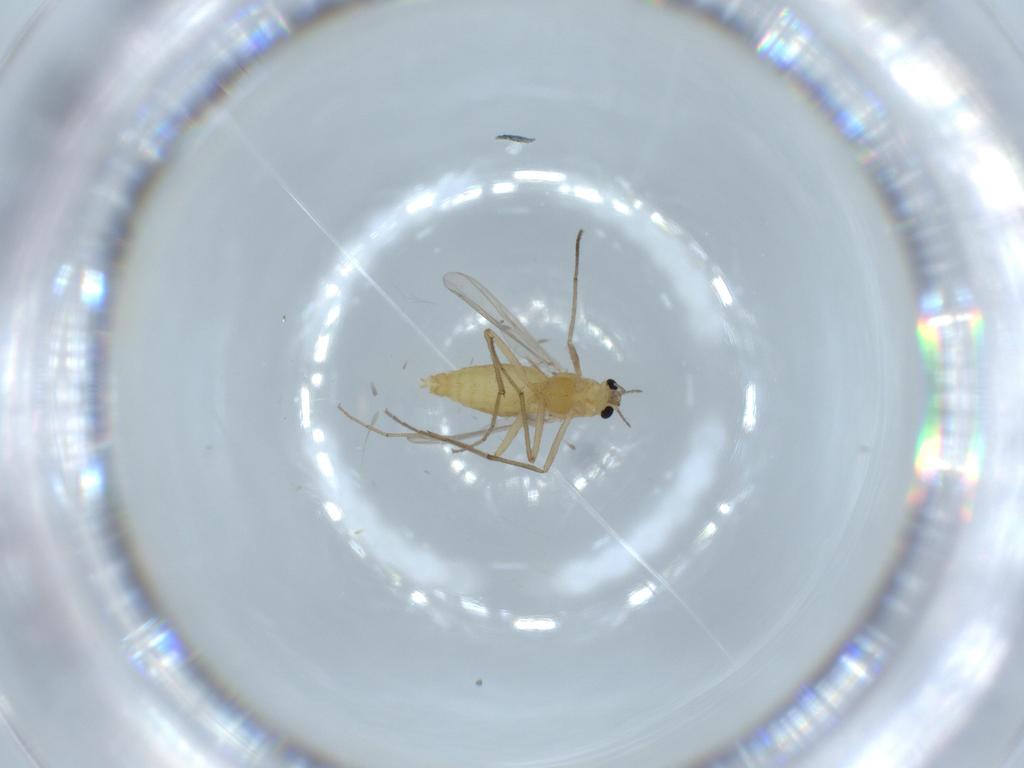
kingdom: Animalia
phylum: Arthropoda
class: Insecta
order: Diptera
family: Chironomidae
